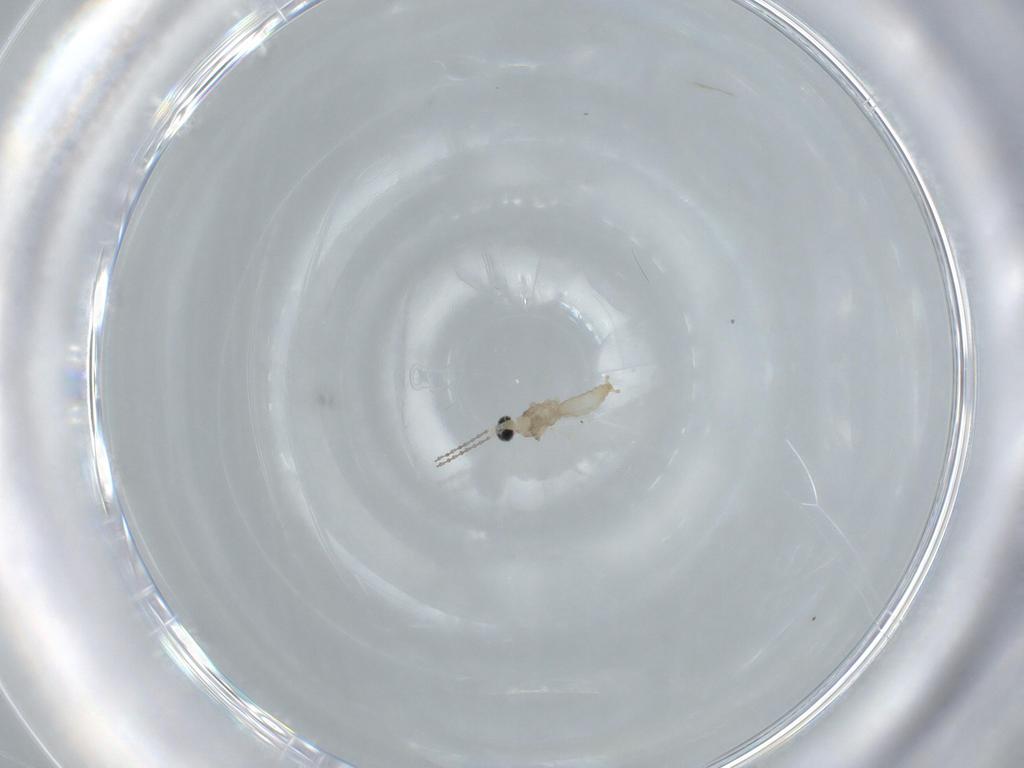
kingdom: Animalia
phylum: Arthropoda
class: Insecta
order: Diptera
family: Cecidomyiidae
